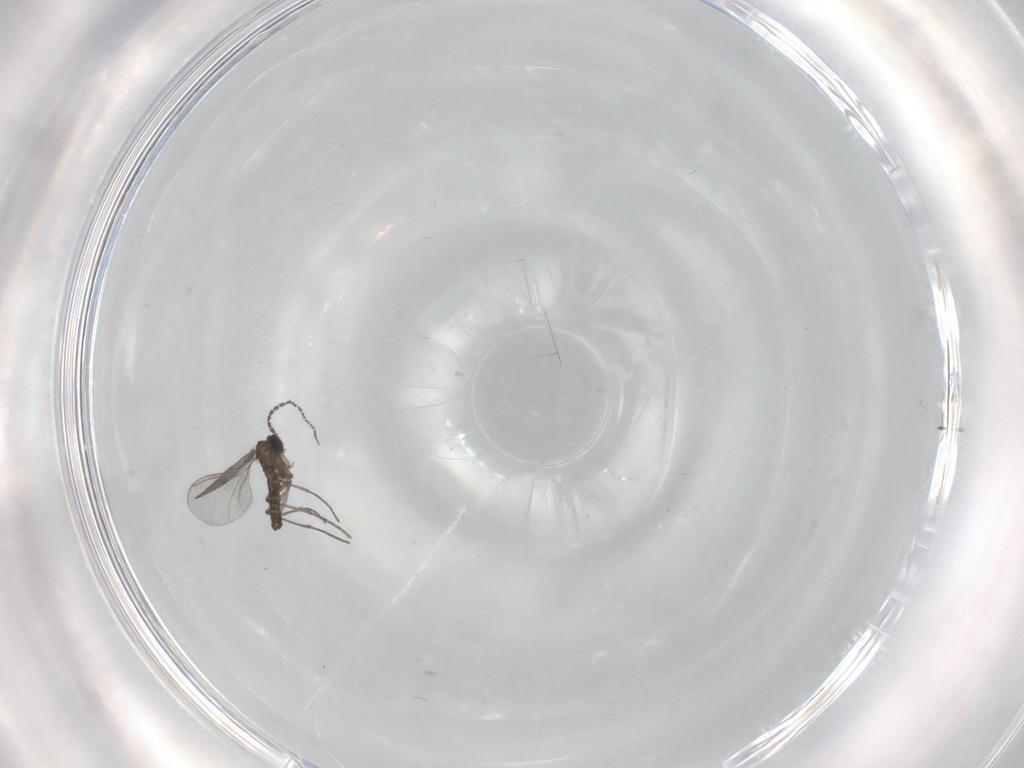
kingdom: Animalia
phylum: Arthropoda
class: Insecta
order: Diptera
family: Sciaridae
